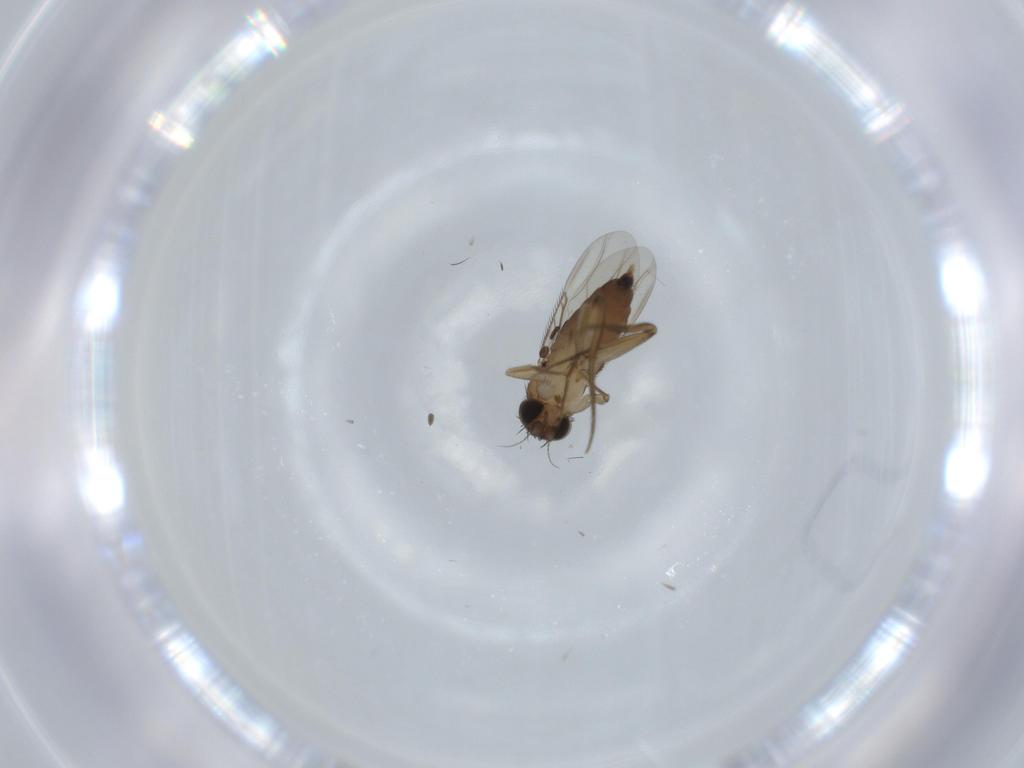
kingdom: Animalia
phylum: Arthropoda
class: Insecta
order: Diptera
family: Phoridae
